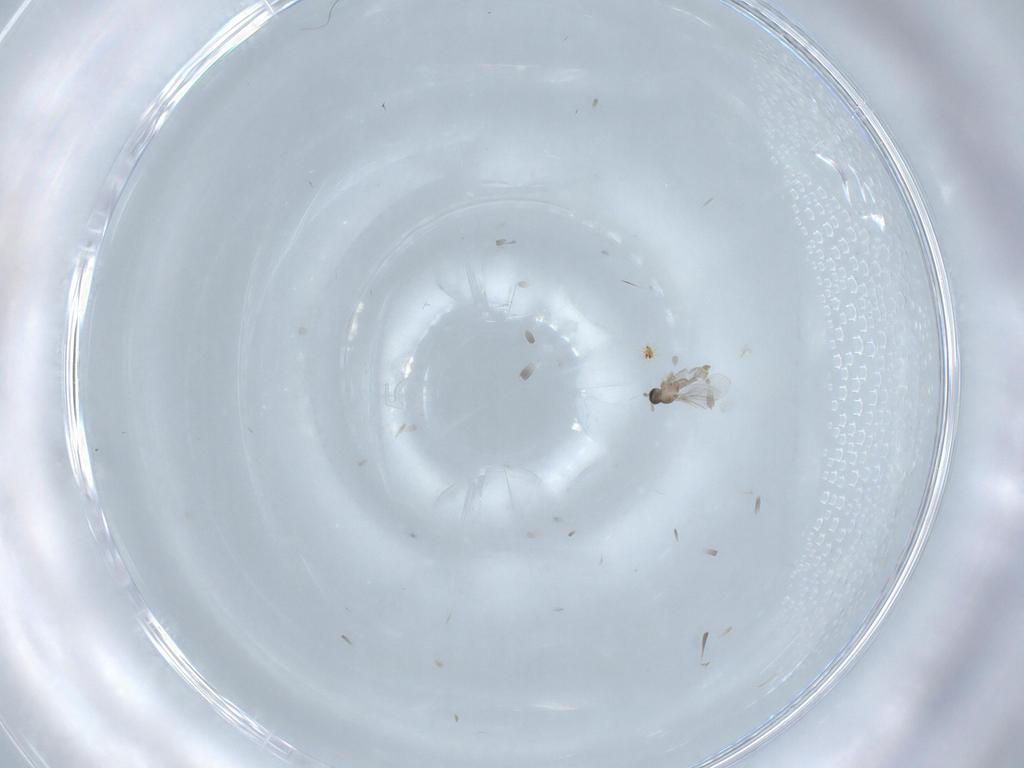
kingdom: Animalia
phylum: Arthropoda
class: Insecta
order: Diptera
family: Cecidomyiidae
